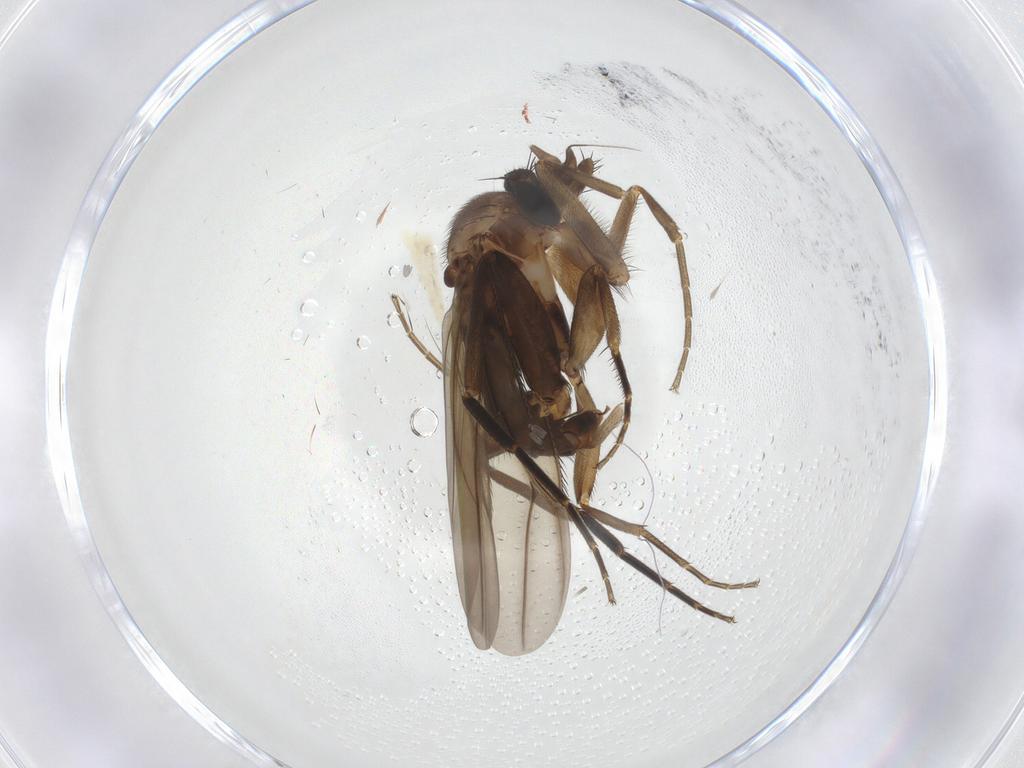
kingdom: Animalia
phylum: Arthropoda
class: Insecta
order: Diptera
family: Phoridae
